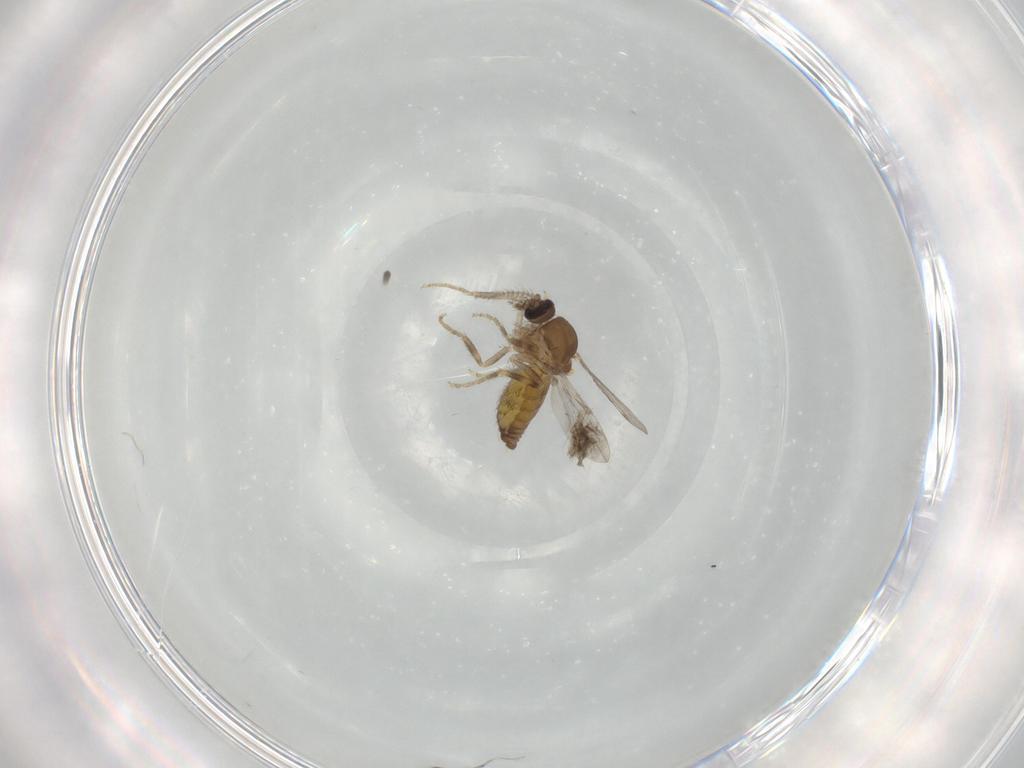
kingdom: Animalia
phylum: Arthropoda
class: Insecta
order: Diptera
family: Ceratopogonidae
